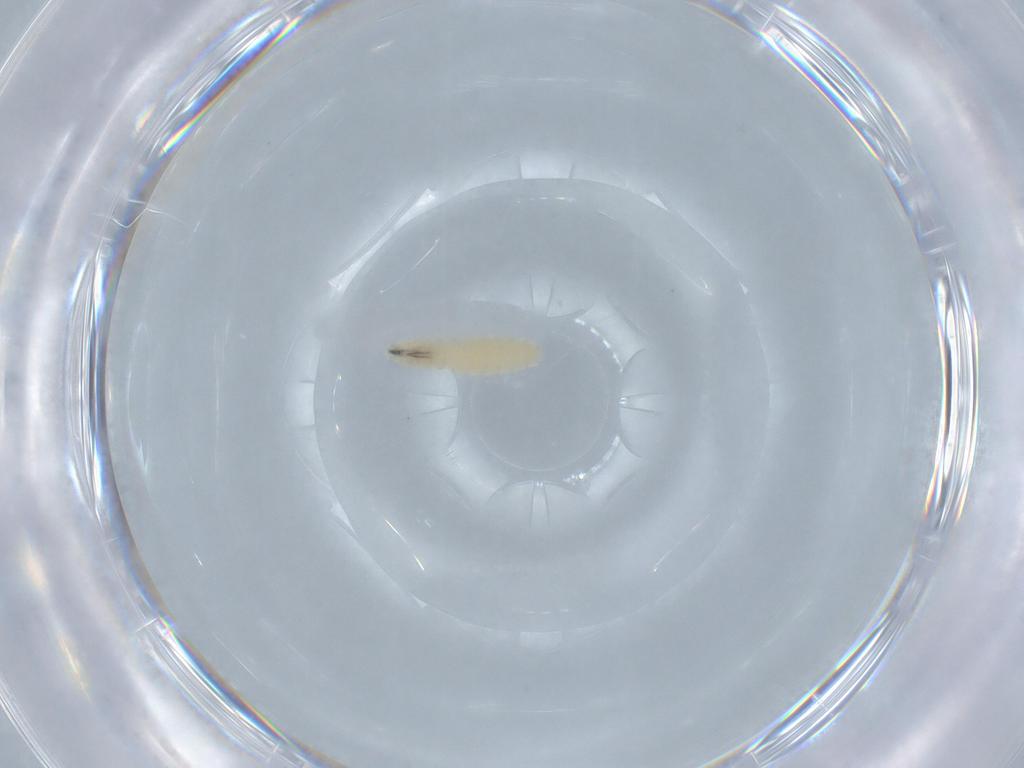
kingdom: Animalia
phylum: Arthropoda
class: Insecta
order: Diptera
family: Sarcophagidae
